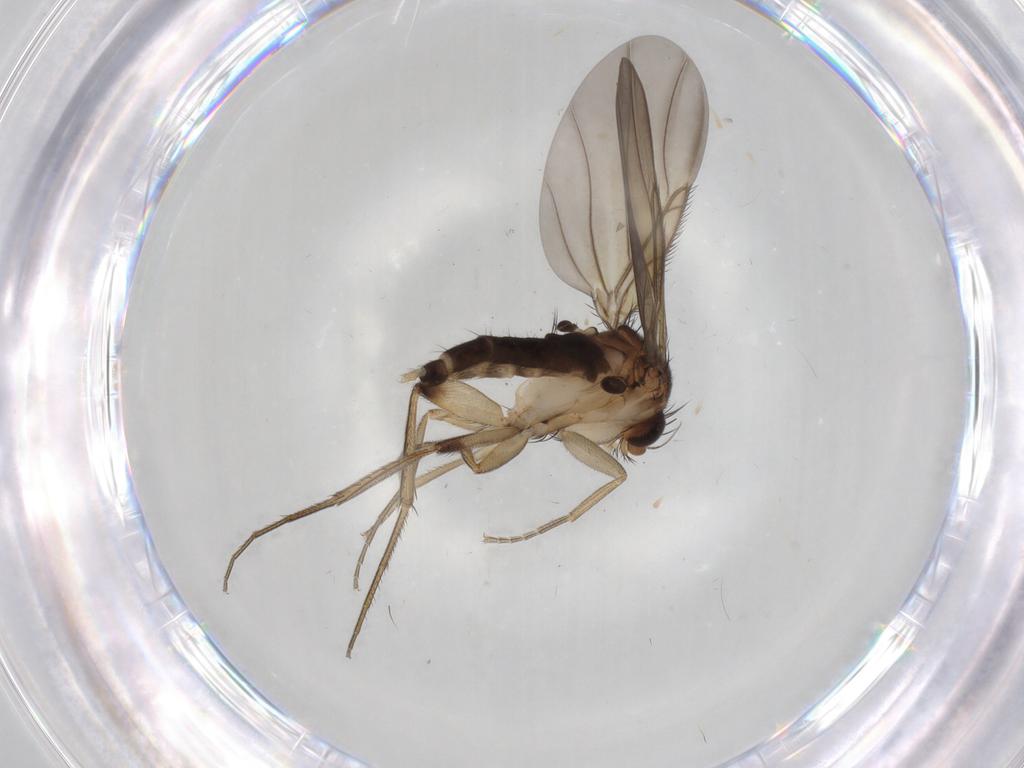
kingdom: Animalia
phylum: Arthropoda
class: Insecta
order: Diptera
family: Phoridae
